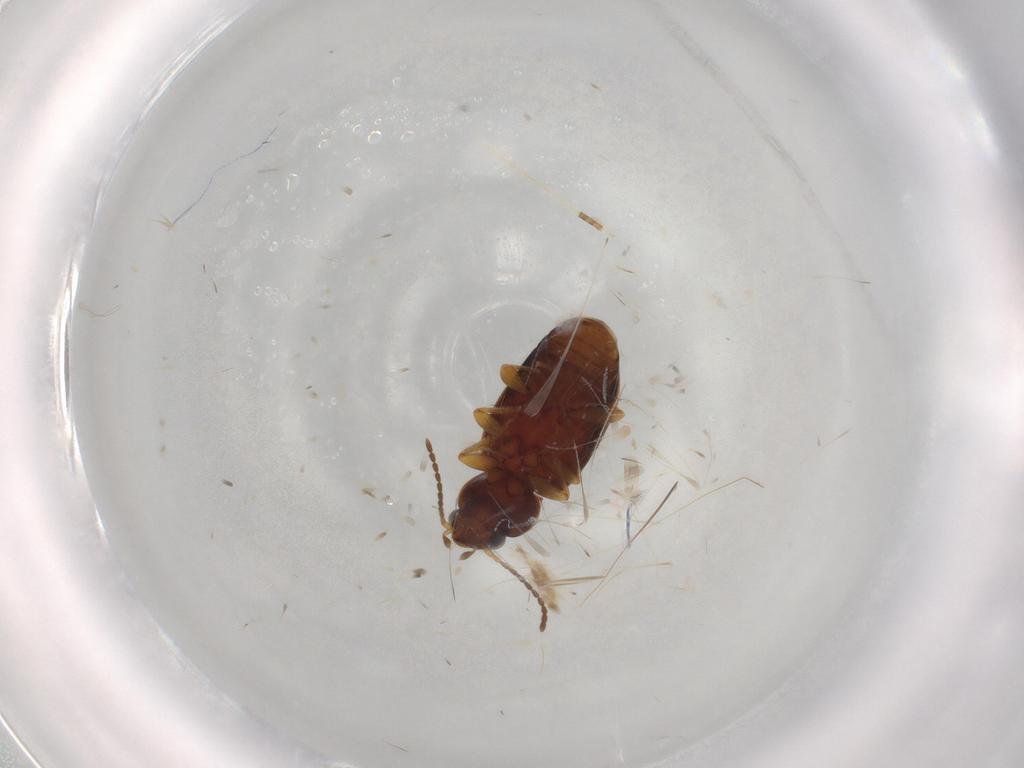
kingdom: Animalia
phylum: Arthropoda
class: Insecta
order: Coleoptera
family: Carabidae
